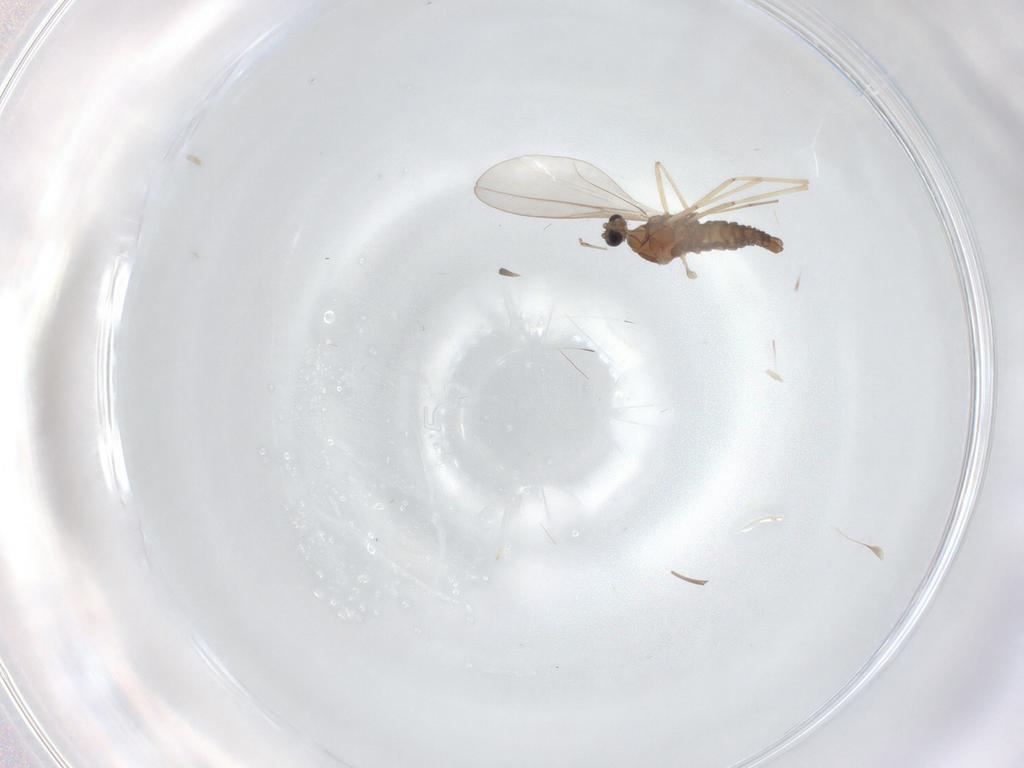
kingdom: Animalia
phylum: Arthropoda
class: Insecta
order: Diptera
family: Cecidomyiidae
